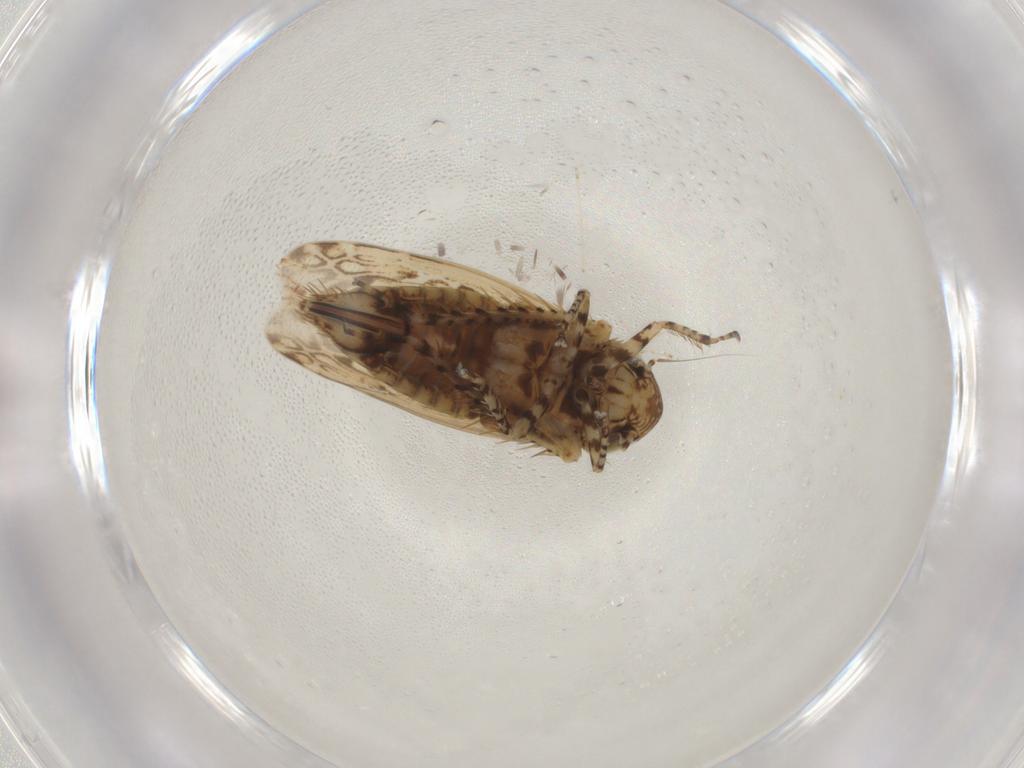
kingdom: Animalia
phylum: Arthropoda
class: Insecta
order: Hemiptera
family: Cicadellidae
